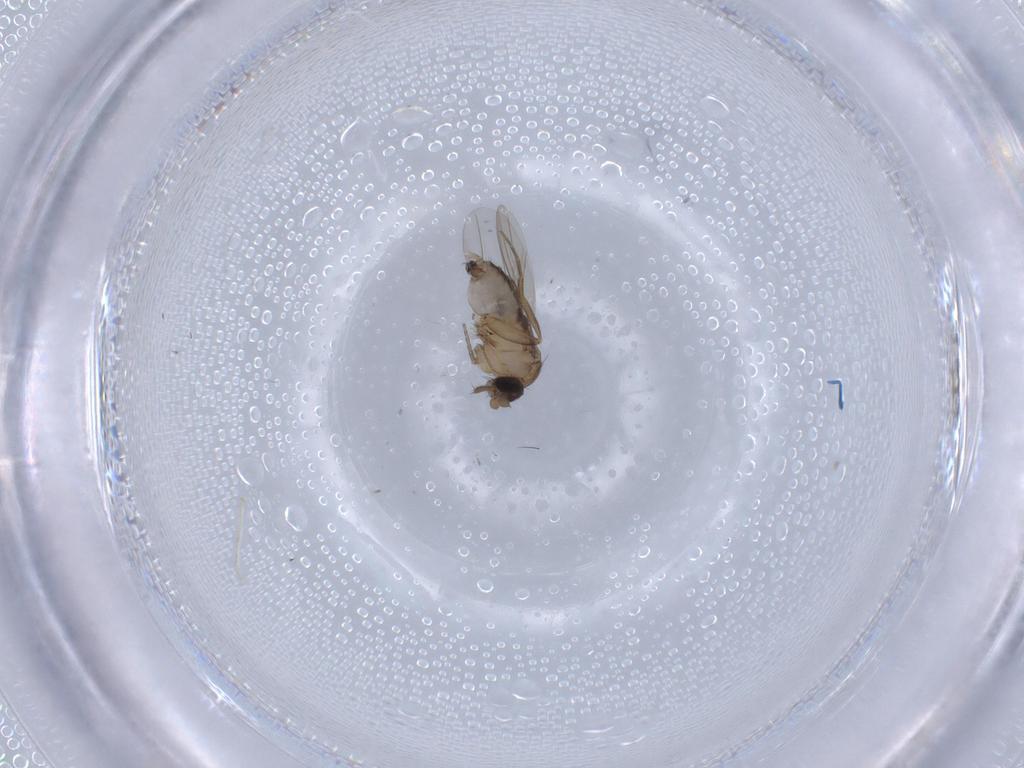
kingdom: Animalia
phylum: Arthropoda
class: Insecta
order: Diptera
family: Phoridae
